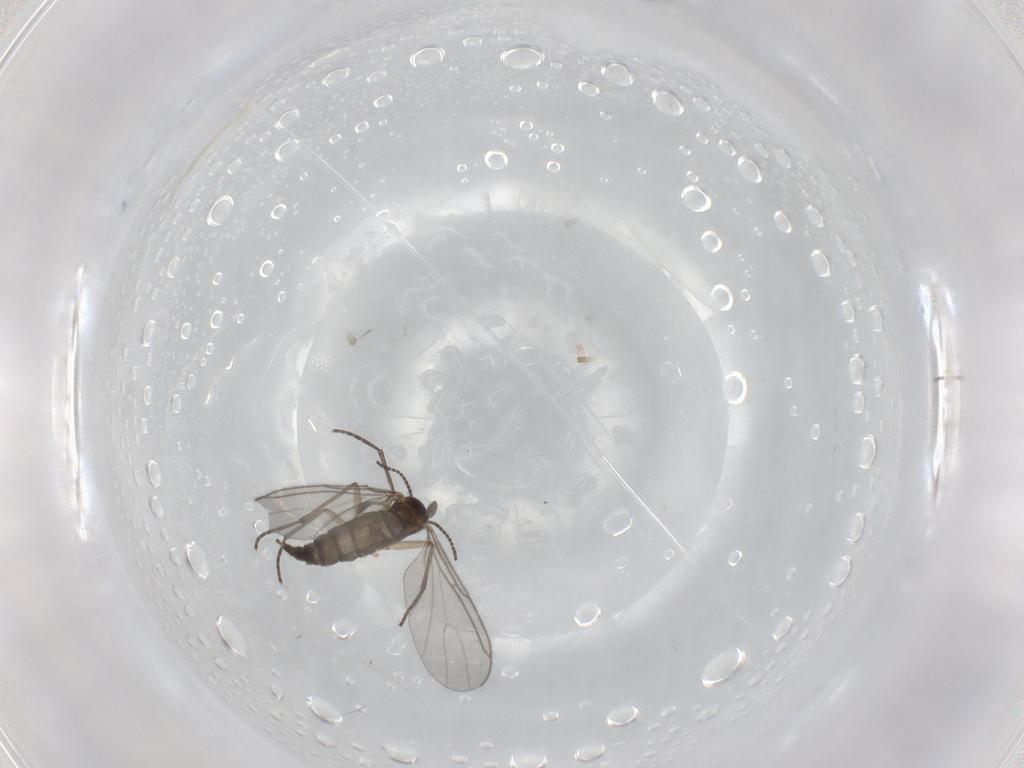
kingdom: Animalia
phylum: Arthropoda
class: Insecta
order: Diptera
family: Sciaridae
